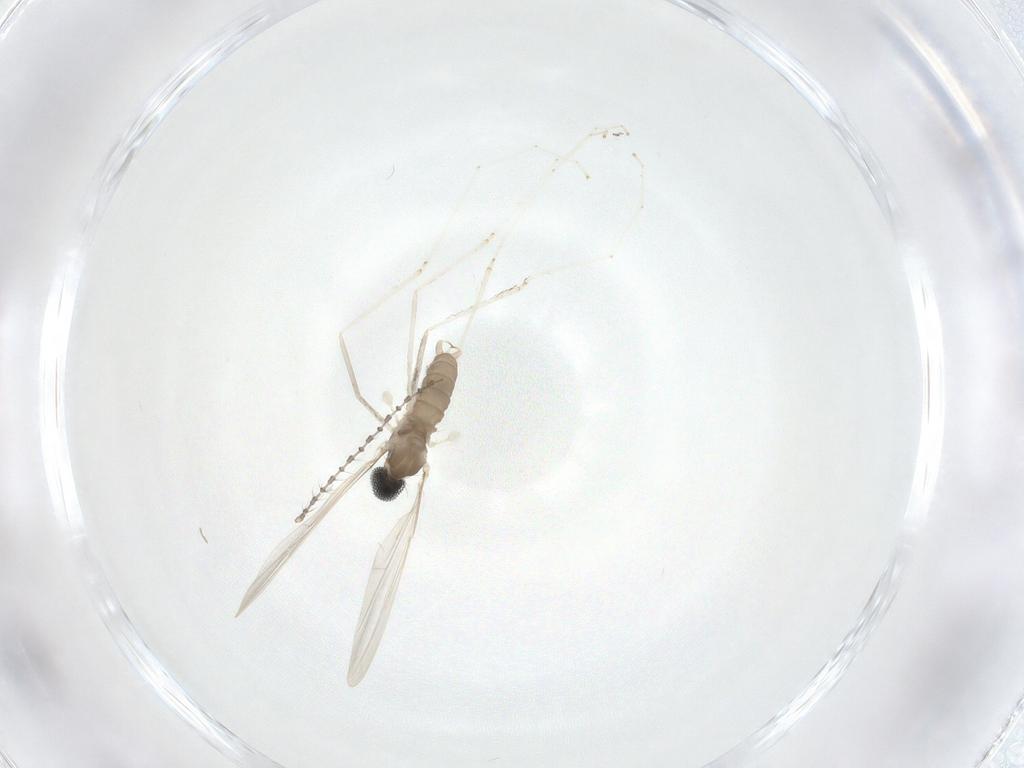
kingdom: Animalia
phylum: Arthropoda
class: Insecta
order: Diptera
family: Cecidomyiidae
